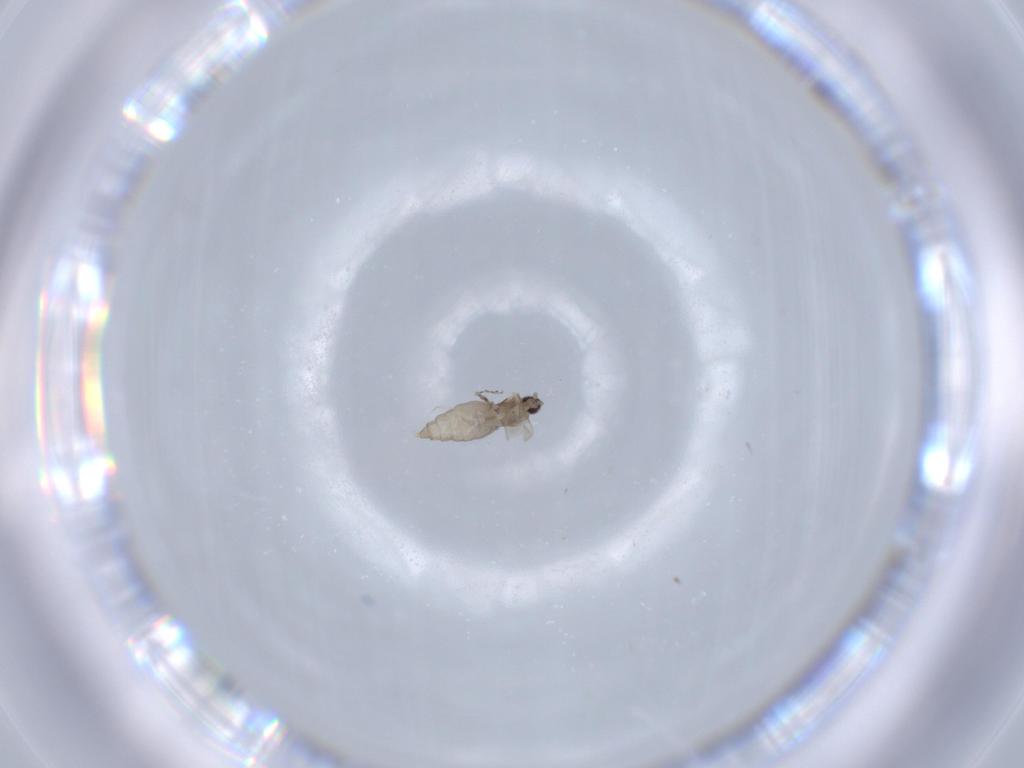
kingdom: Animalia
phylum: Arthropoda
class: Insecta
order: Diptera
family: Cecidomyiidae
